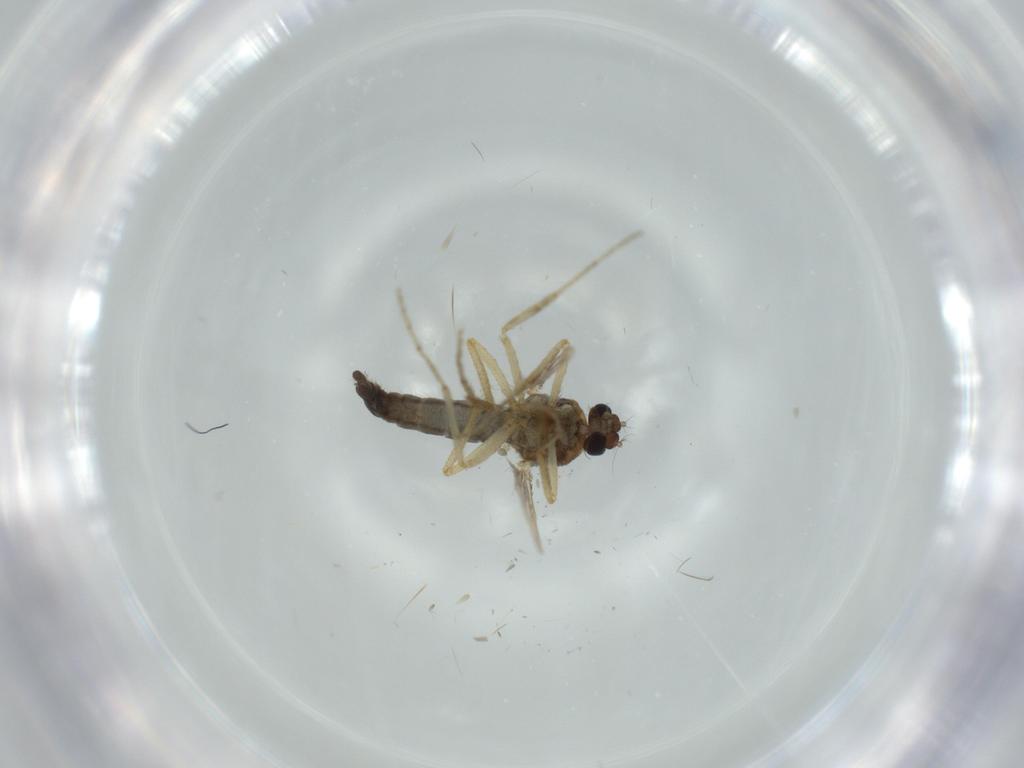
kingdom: Animalia
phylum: Arthropoda
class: Insecta
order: Diptera
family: Cecidomyiidae
